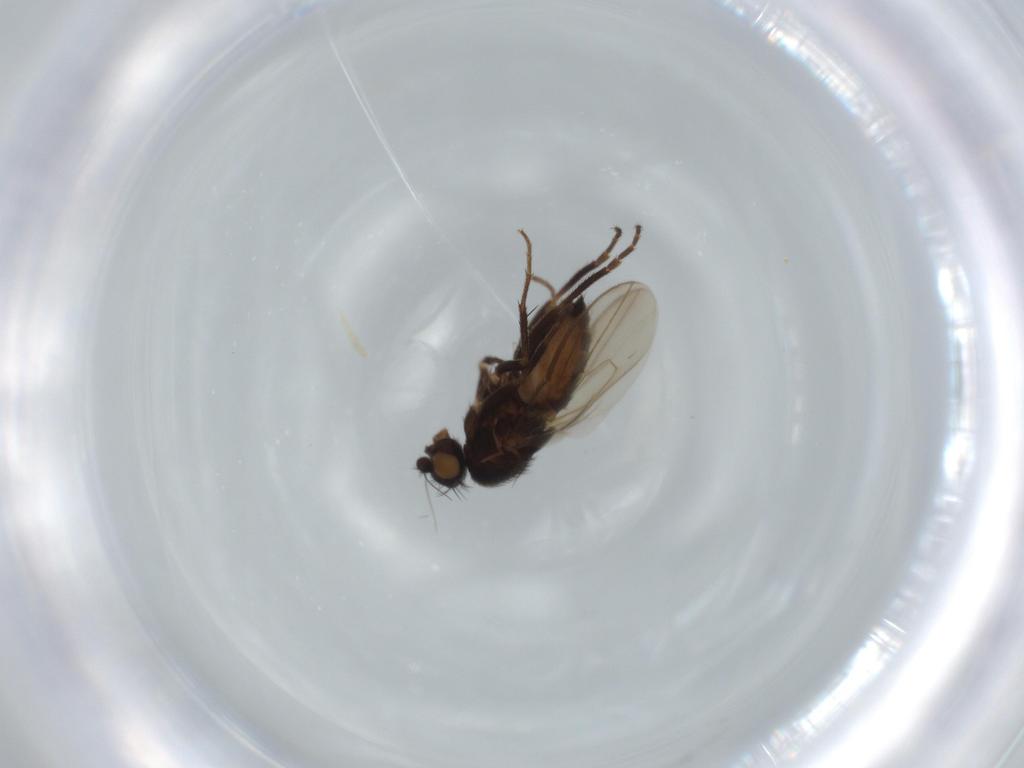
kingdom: Animalia
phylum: Arthropoda
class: Insecta
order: Diptera
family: Sphaeroceridae
